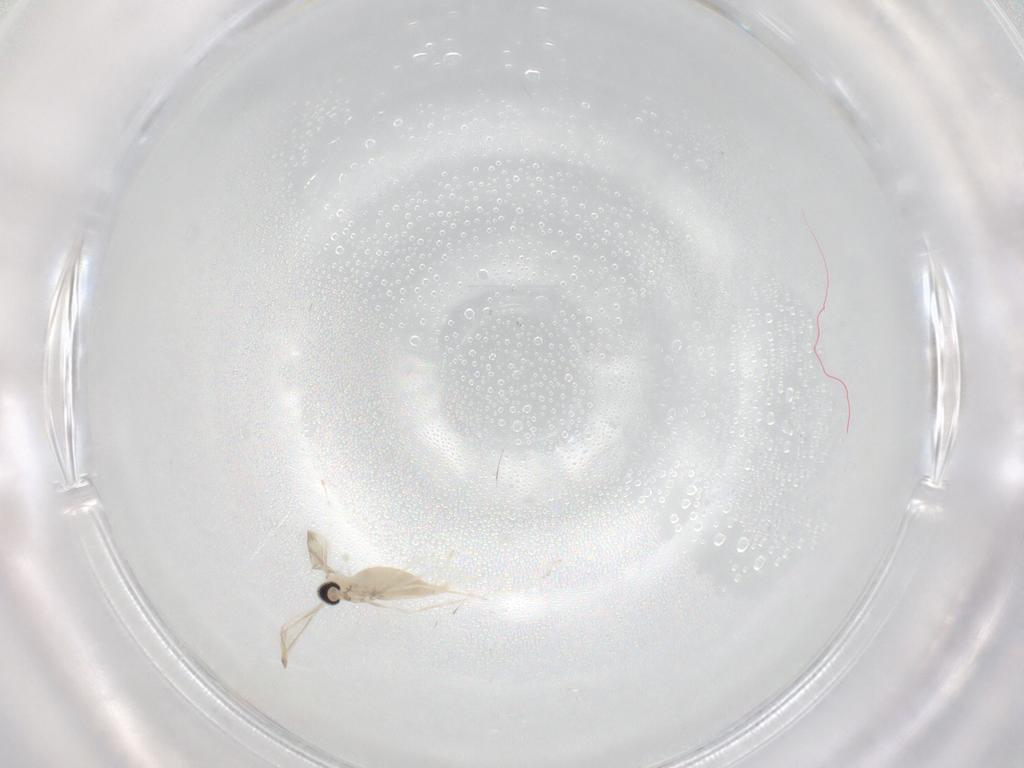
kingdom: Animalia
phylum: Arthropoda
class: Insecta
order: Diptera
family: Cecidomyiidae
